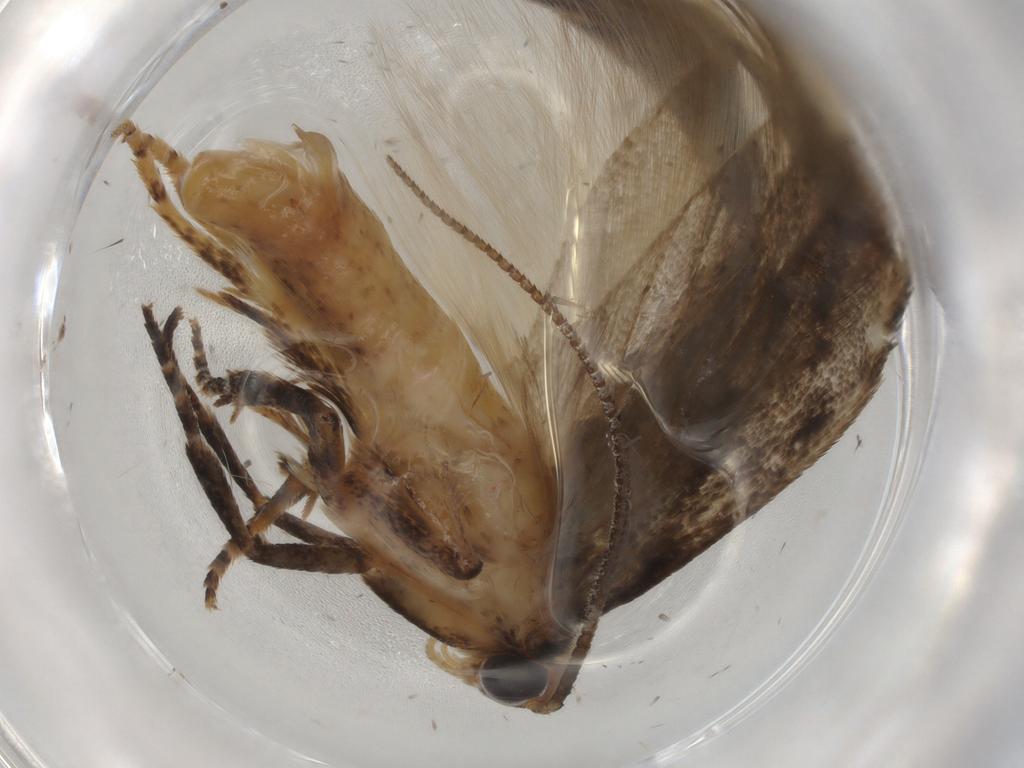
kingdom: Animalia
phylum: Arthropoda
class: Insecta
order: Lepidoptera
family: Gelechiidae
